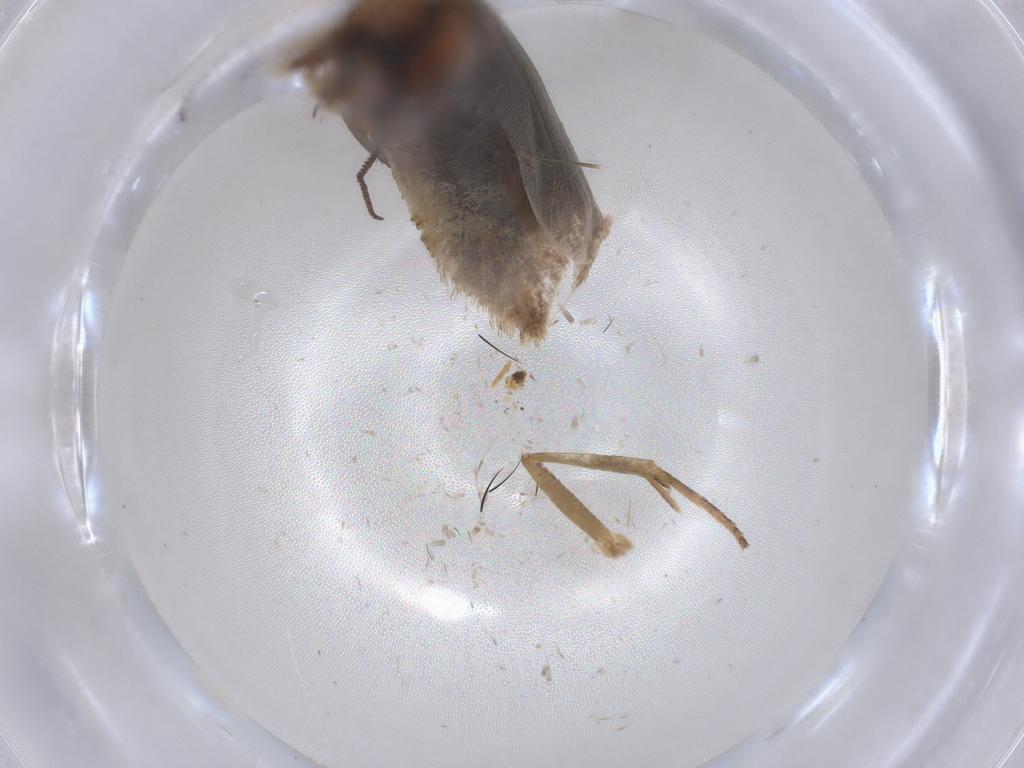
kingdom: Animalia
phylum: Arthropoda
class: Insecta
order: Lepidoptera
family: Gelechiidae
